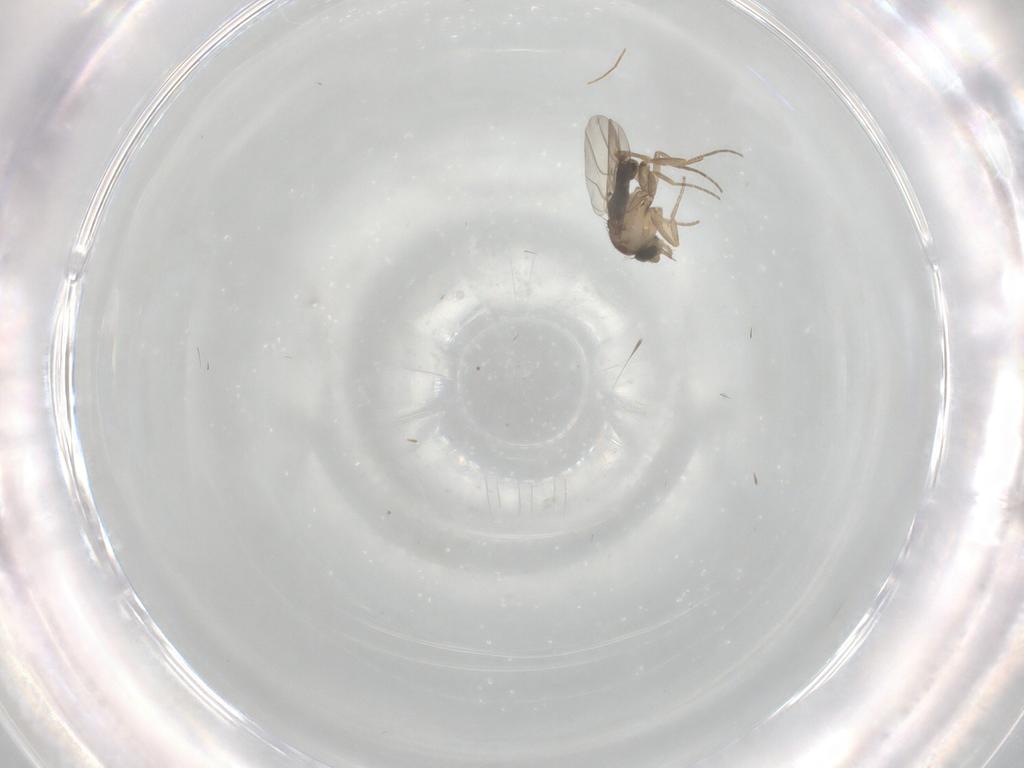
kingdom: Animalia
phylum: Arthropoda
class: Insecta
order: Diptera
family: Phoridae
